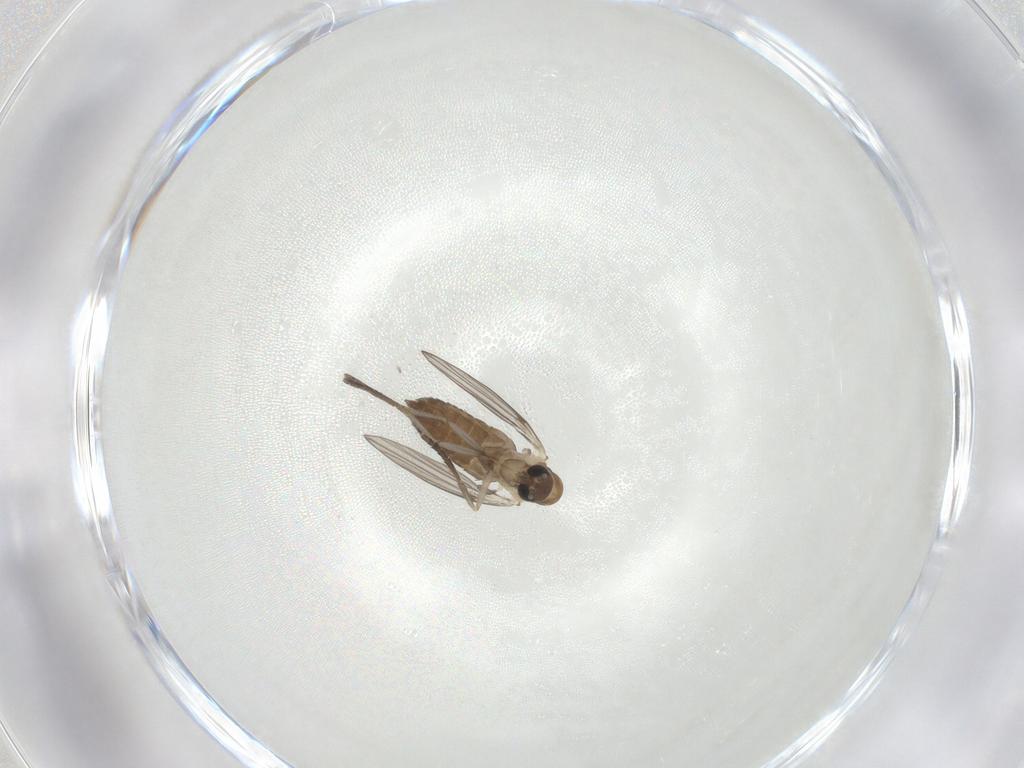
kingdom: Animalia
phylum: Arthropoda
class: Insecta
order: Diptera
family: Psychodidae
